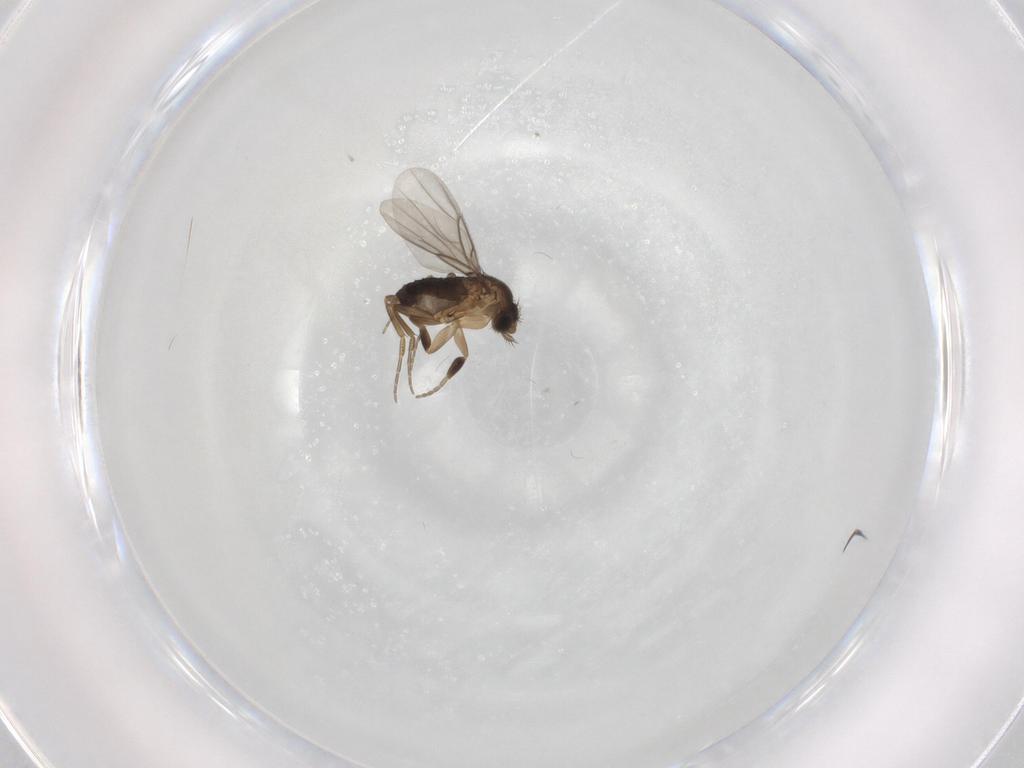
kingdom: Animalia
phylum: Arthropoda
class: Insecta
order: Diptera
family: Phoridae
